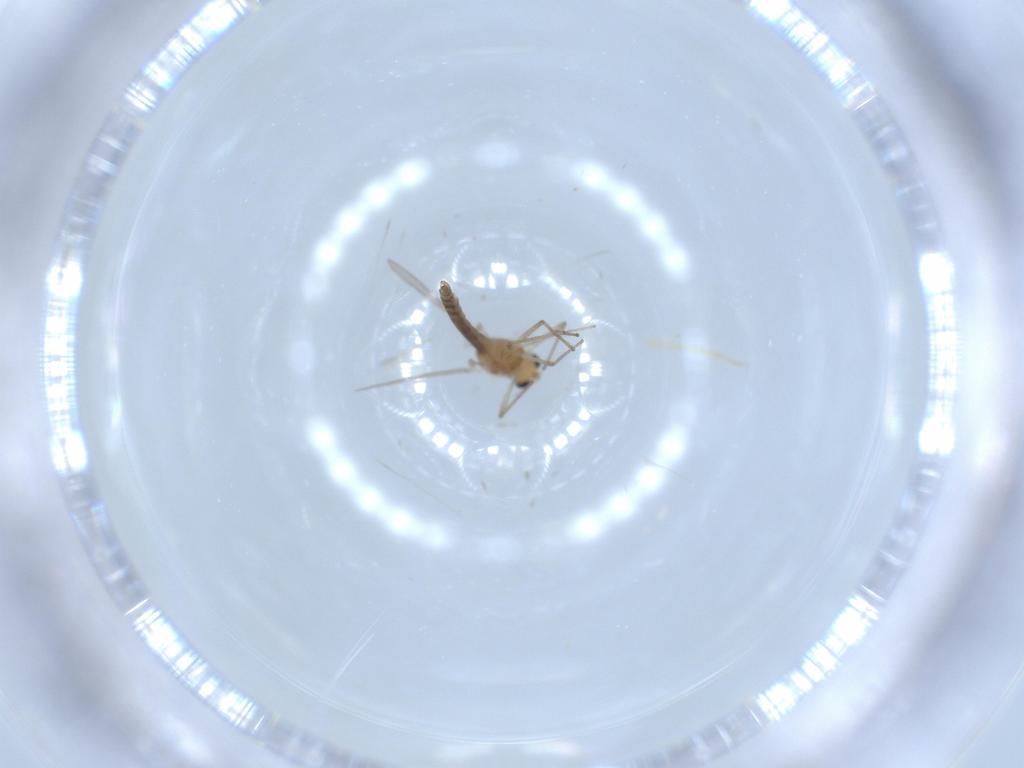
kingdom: Animalia
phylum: Arthropoda
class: Insecta
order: Diptera
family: Chironomidae
